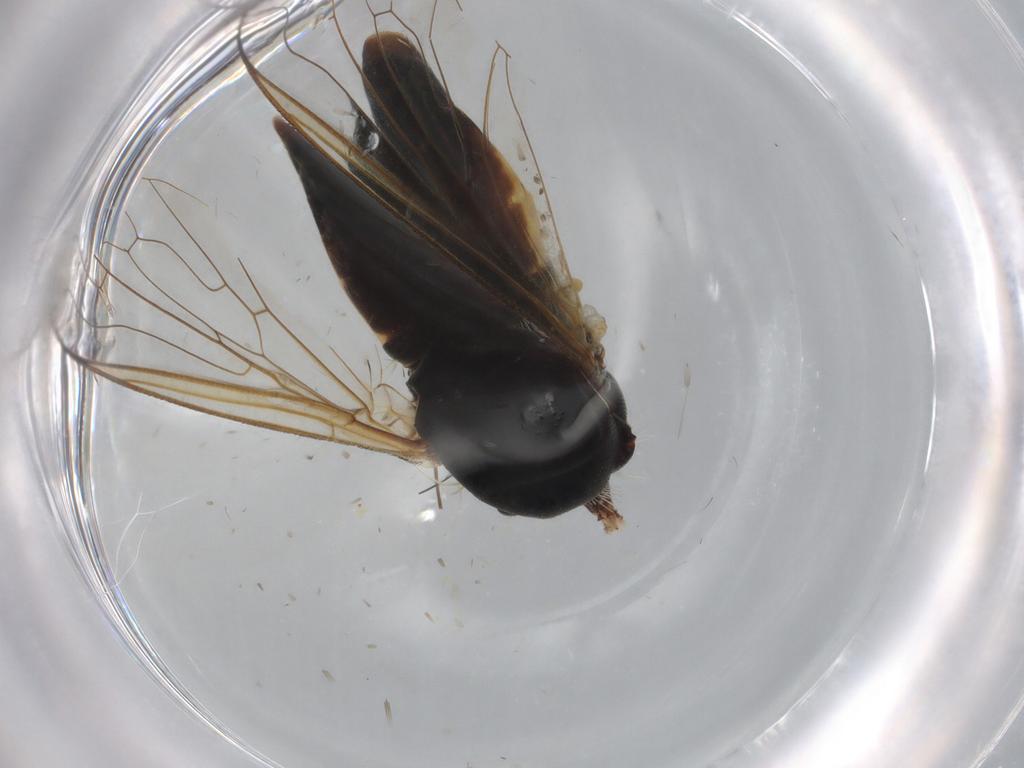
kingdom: Animalia
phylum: Arthropoda
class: Insecta
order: Diptera
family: Bombyliidae
